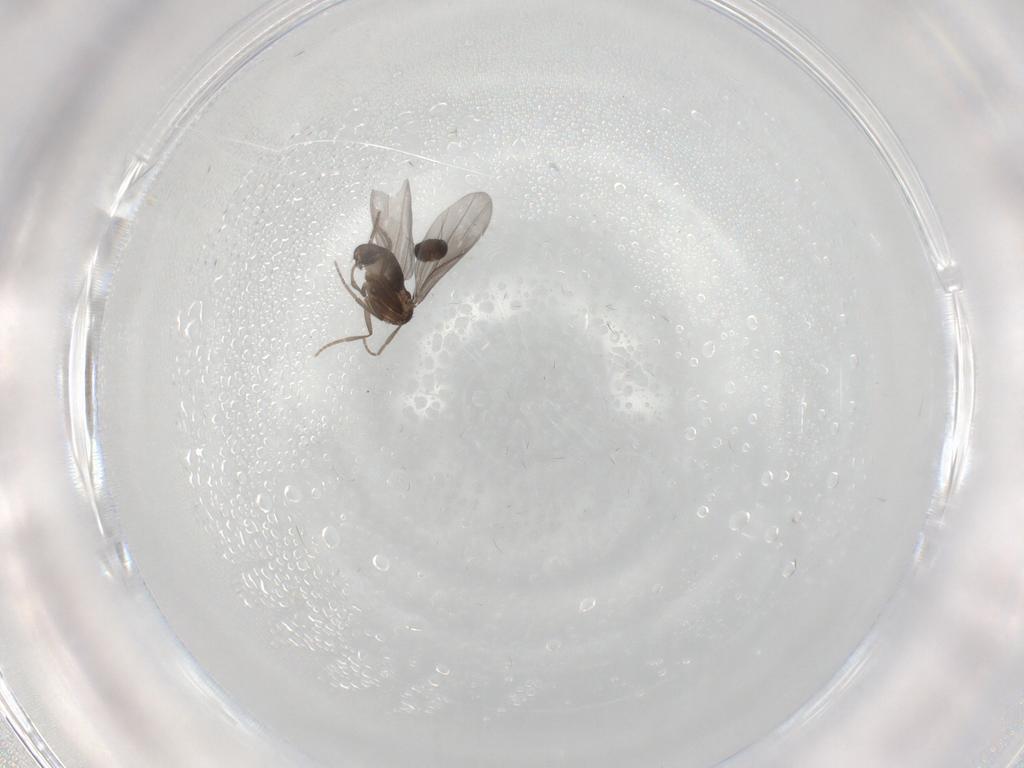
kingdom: Animalia
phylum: Arthropoda
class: Insecta
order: Diptera
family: Phoridae
